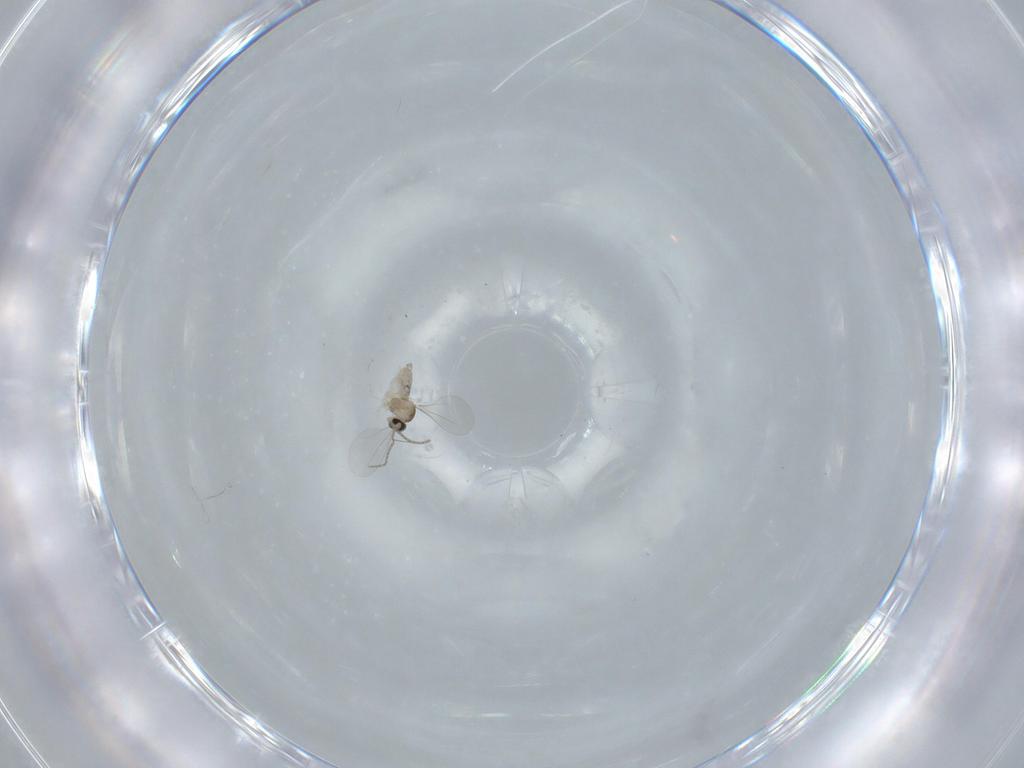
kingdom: Animalia
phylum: Arthropoda
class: Insecta
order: Diptera
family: Cecidomyiidae
